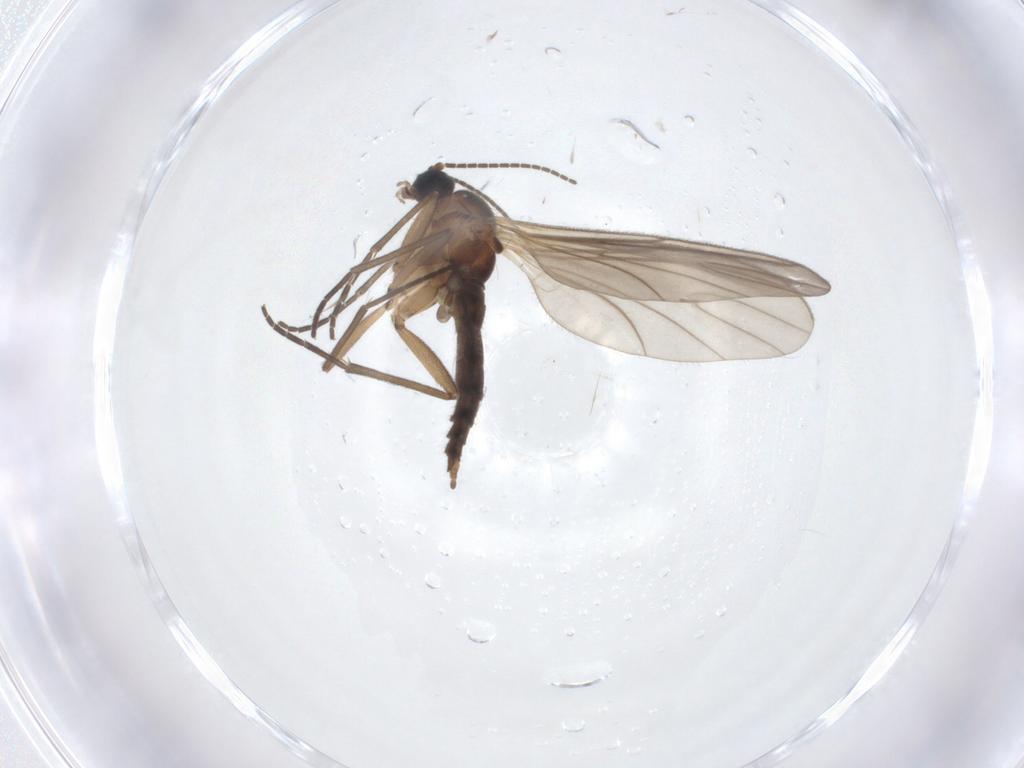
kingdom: Animalia
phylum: Arthropoda
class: Insecta
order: Diptera
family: Sciaridae
